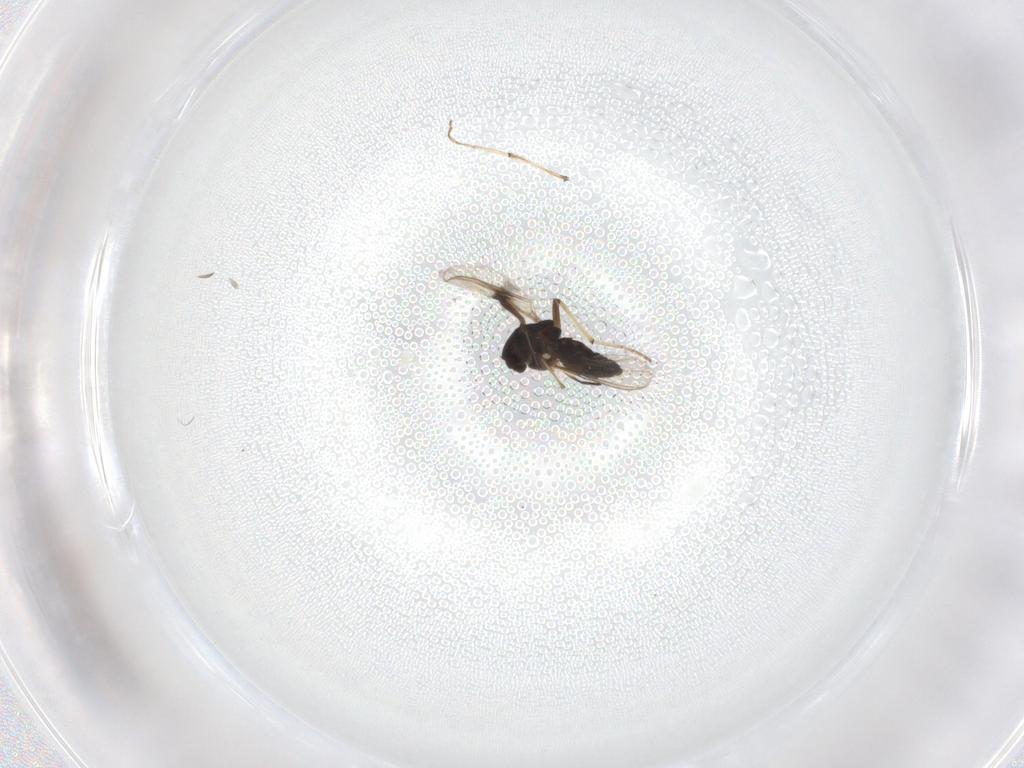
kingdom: Animalia
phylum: Arthropoda
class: Insecta
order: Diptera
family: Chironomidae
